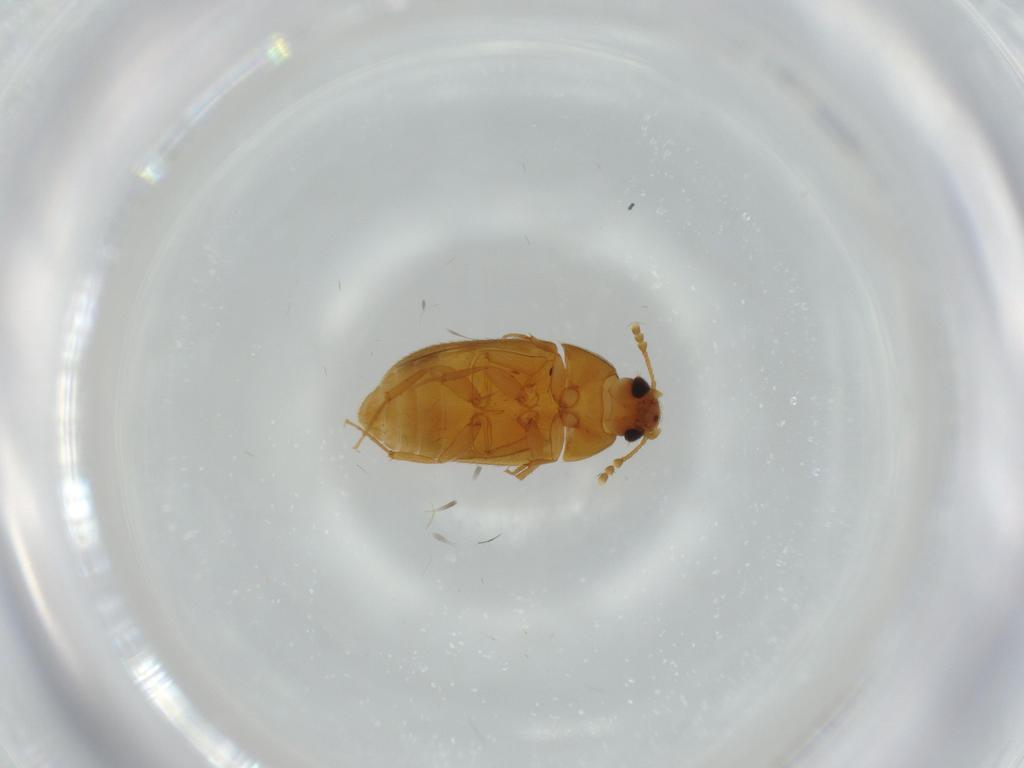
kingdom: Animalia
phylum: Arthropoda
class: Insecta
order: Coleoptera
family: Mycetophagidae
